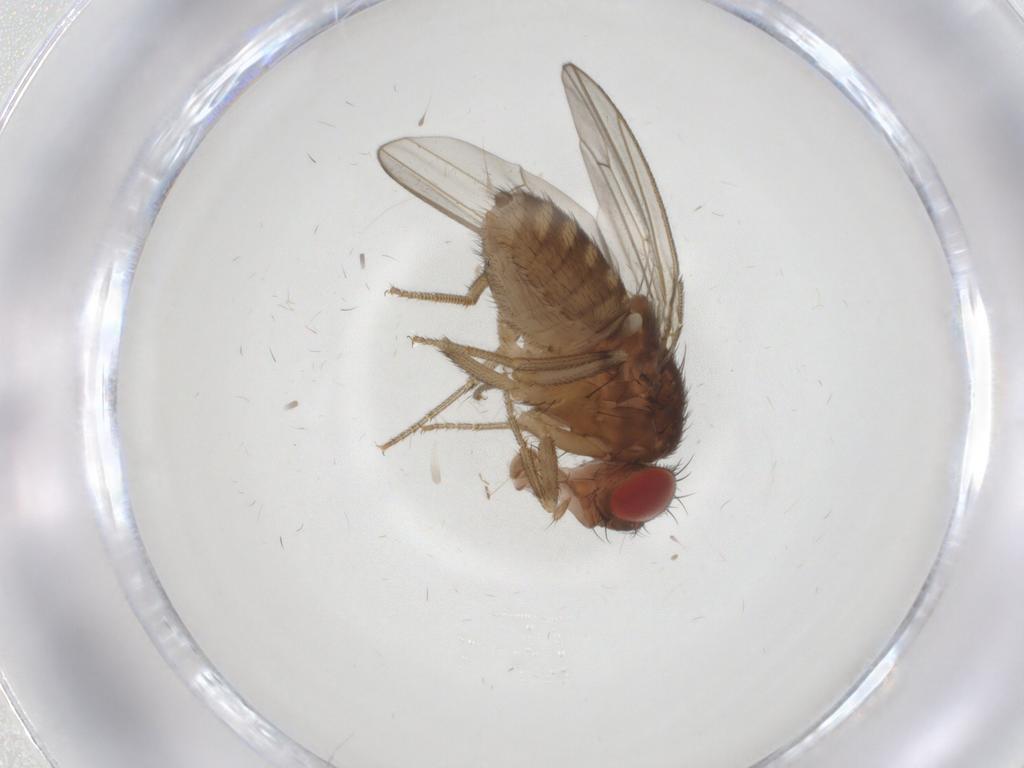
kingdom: Animalia
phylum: Arthropoda
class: Insecta
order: Diptera
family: Drosophilidae
